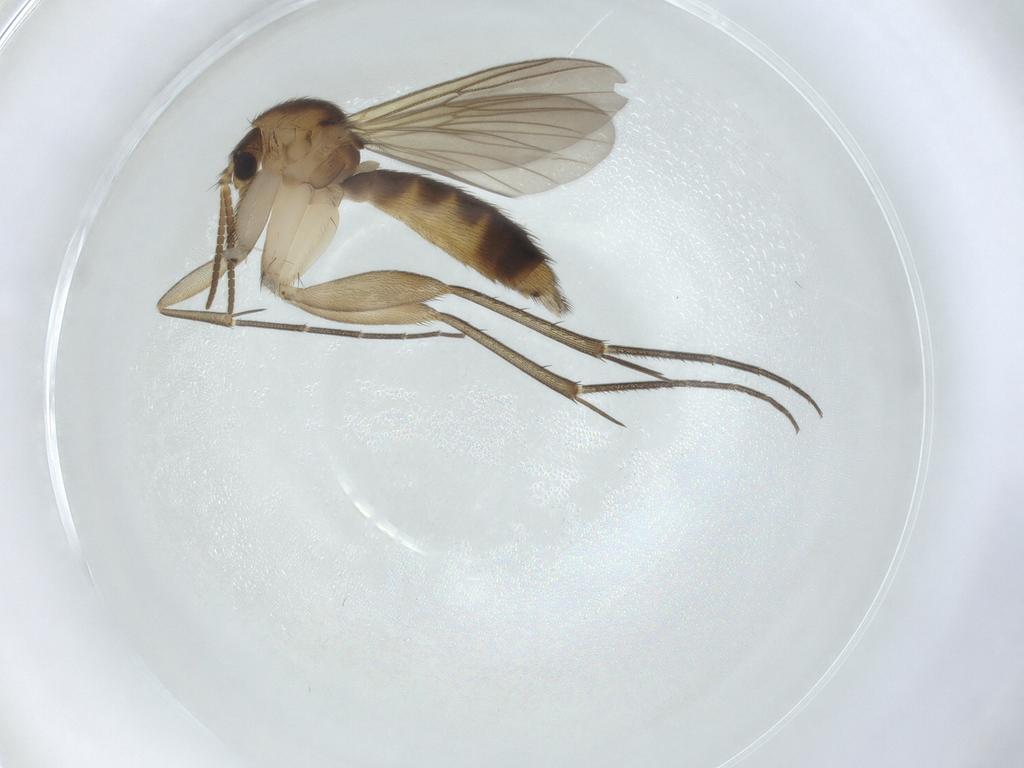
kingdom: Animalia
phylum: Arthropoda
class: Insecta
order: Diptera
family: Mycetophilidae
